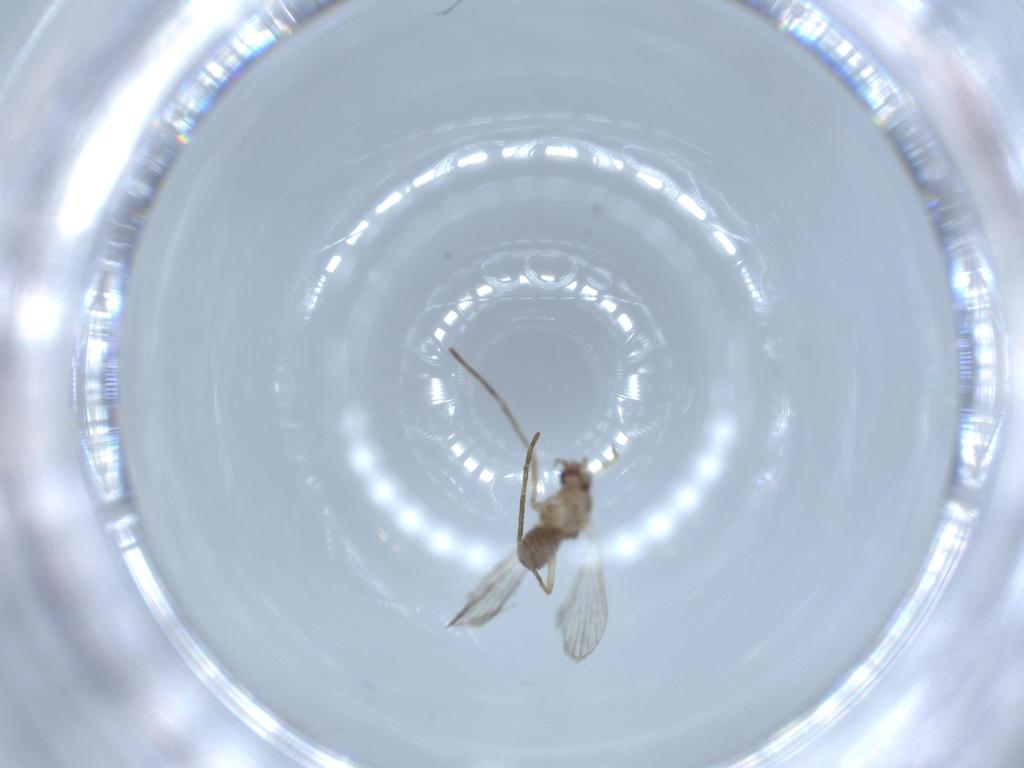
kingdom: Animalia
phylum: Arthropoda
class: Insecta
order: Diptera
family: Psychodidae
